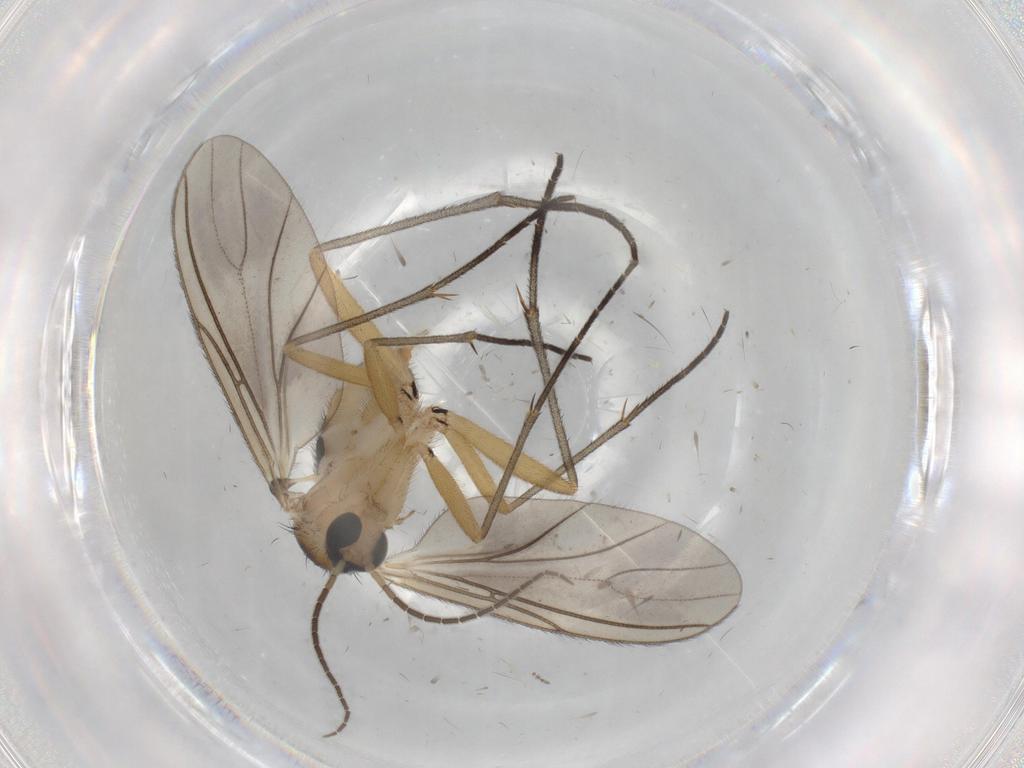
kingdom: Animalia
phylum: Arthropoda
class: Insecta
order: Diptera
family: Sciaridae
